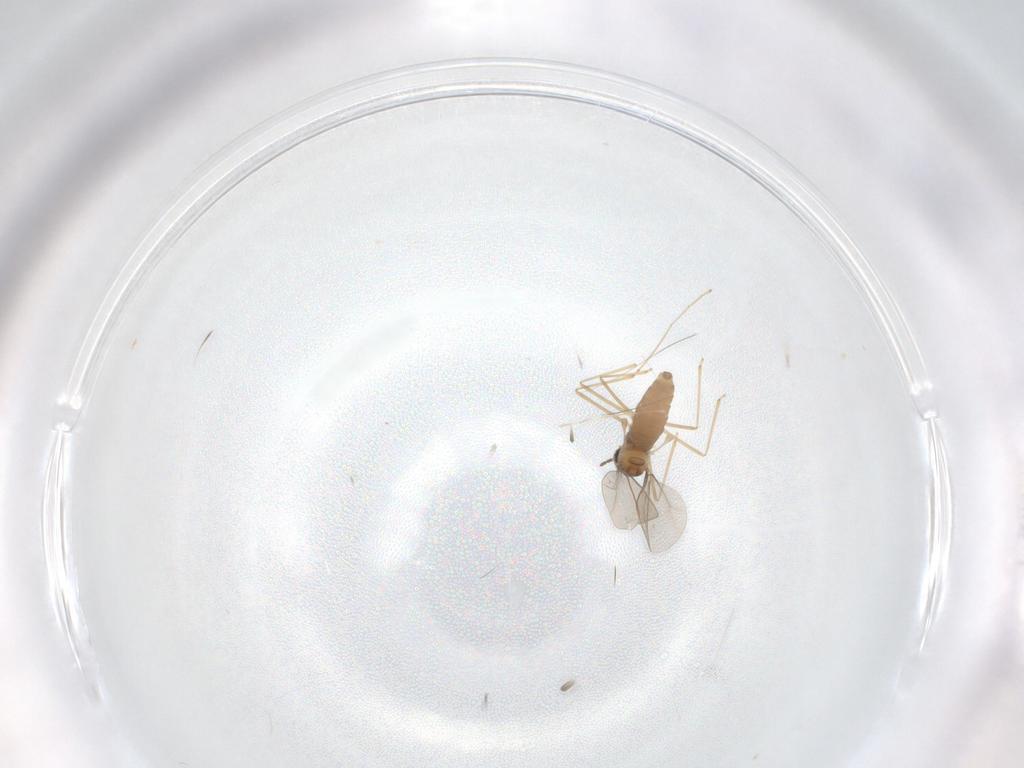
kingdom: Animalia
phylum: Arthropoda
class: Insecta
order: Diptera
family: Cecidomyiidae
